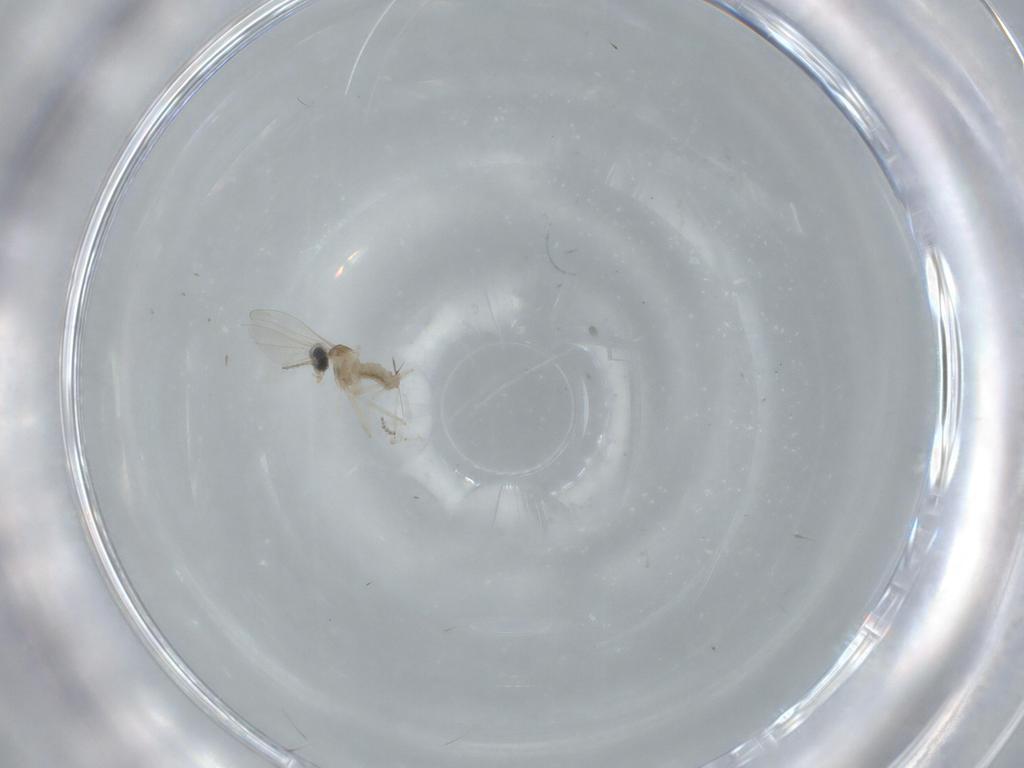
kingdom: Animalia
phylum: Arthropoda
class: Insecta
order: Diptera
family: Cecidomyiidae
